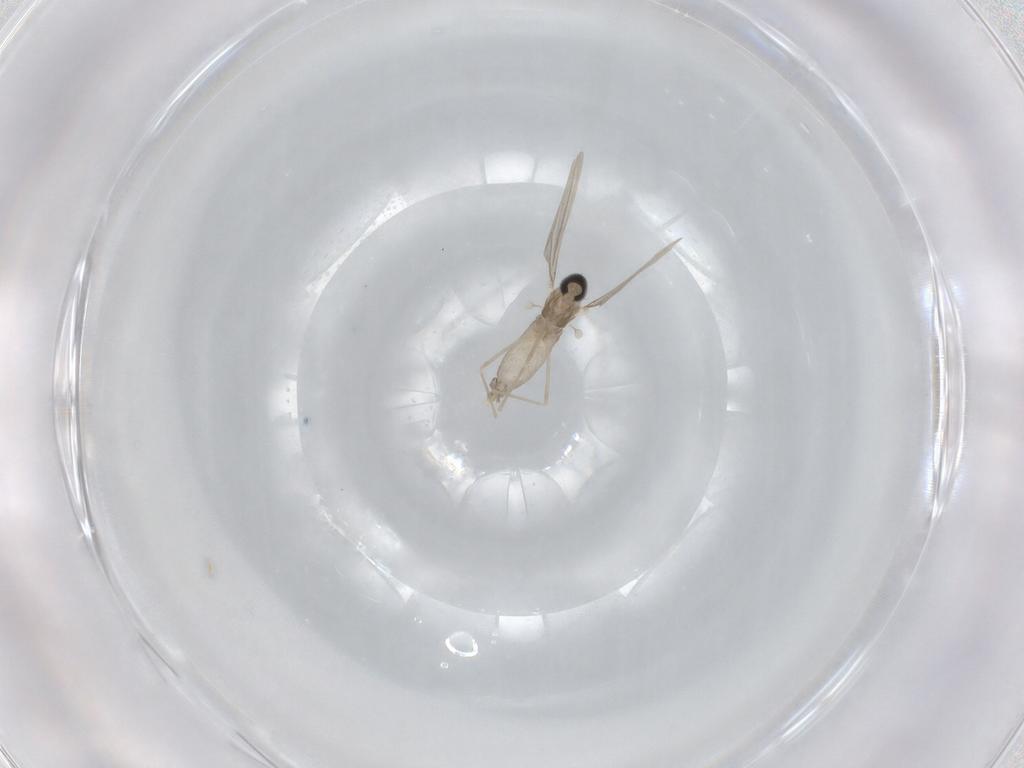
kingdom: Animalia
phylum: Arthropoda
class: Insecta
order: Diptera
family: Cecidomyiidae
